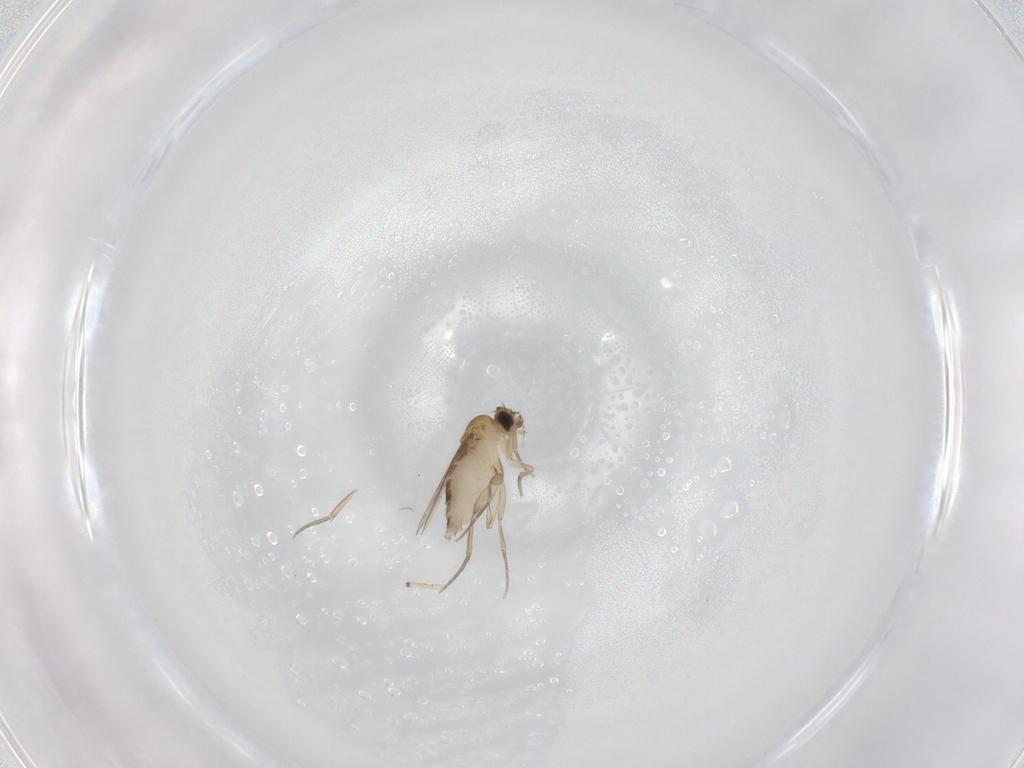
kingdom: Animalia
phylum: Arthropoda
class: Insecta
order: Diptera
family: Phoridae
